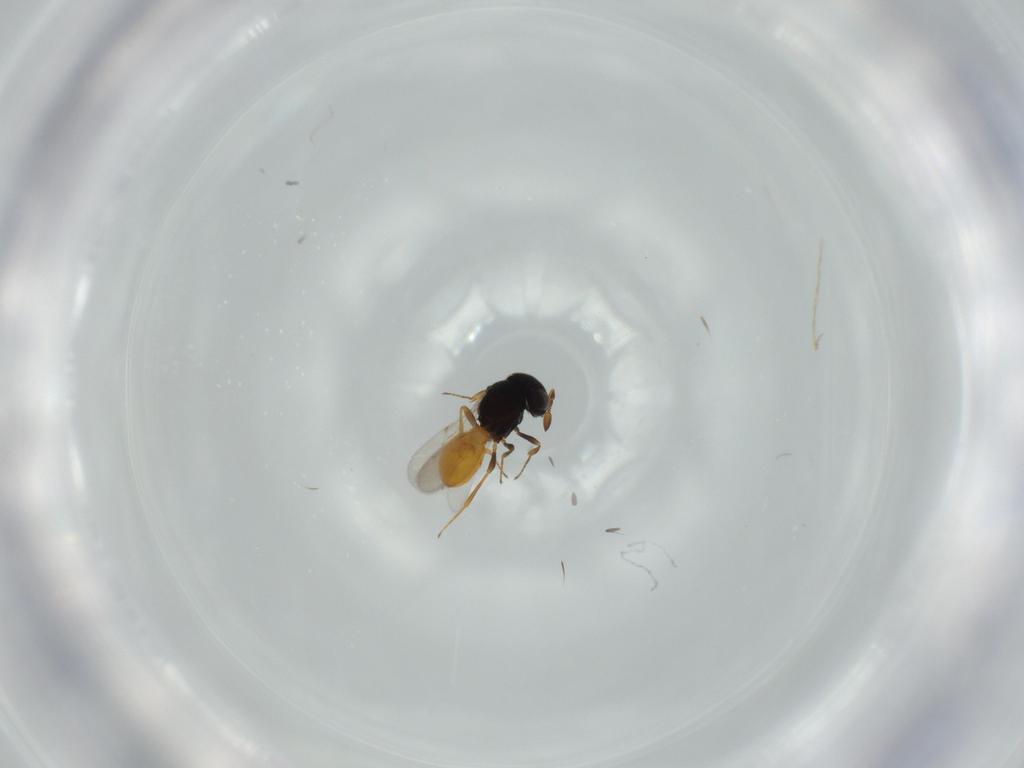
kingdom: Animalia
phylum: Arthropoda
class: Insecta
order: Hymenoptera
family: Scelionidae
